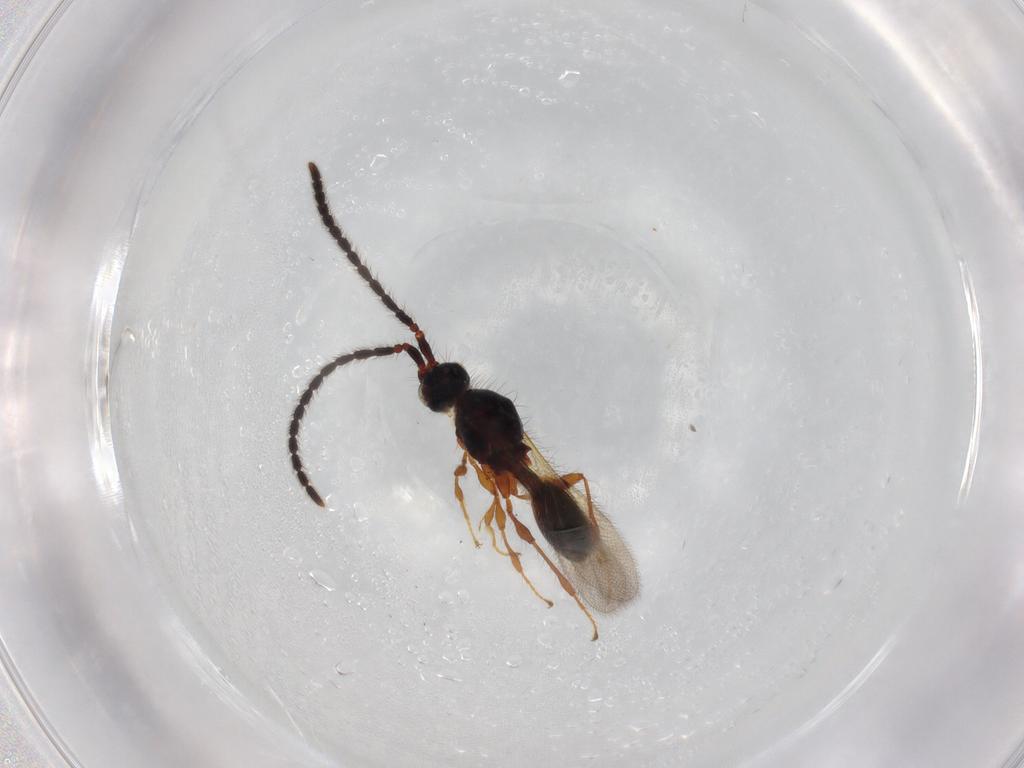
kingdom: Animalia
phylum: Arthropoda
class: Insecta
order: Hymenoptera
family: Diapriidae
